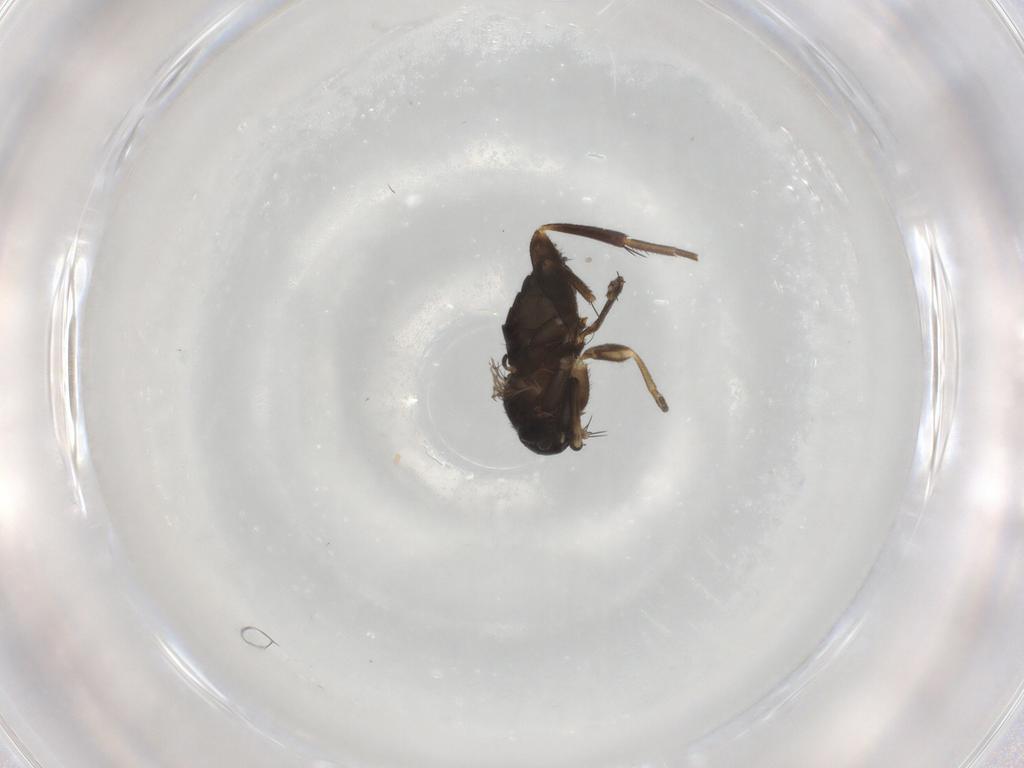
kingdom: Animalia
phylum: Arthropoda
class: Insecta
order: Diptera
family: Phoridae
